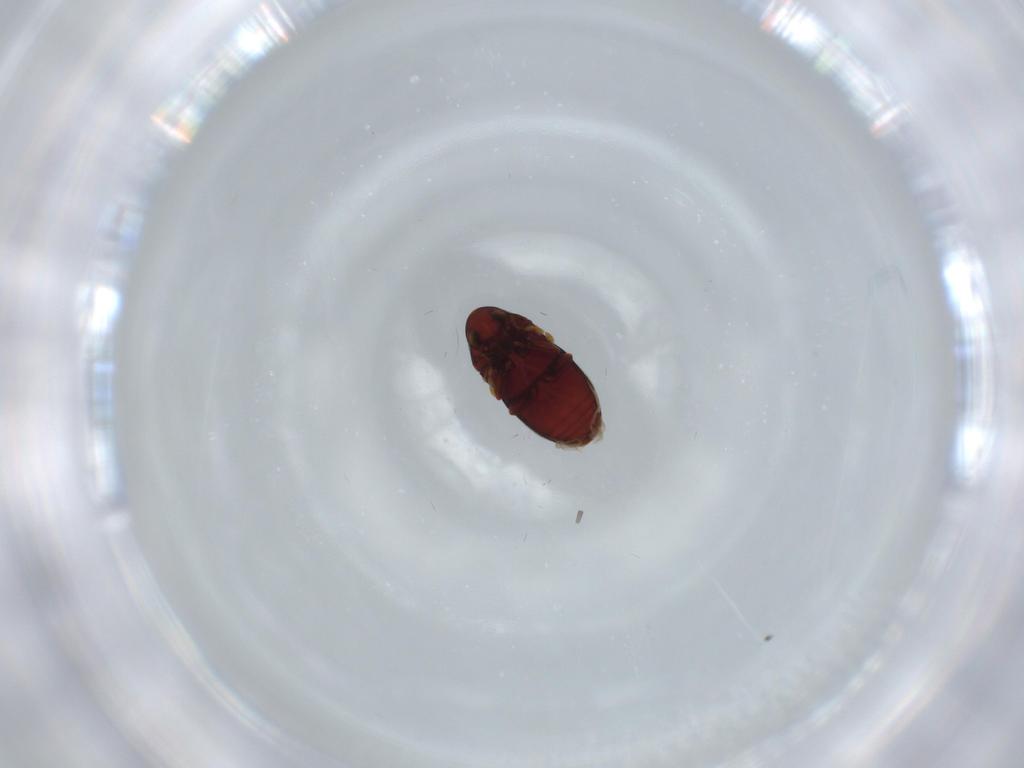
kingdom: Animalia
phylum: Arthropoda
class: Insecta
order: Coleoptera
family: Ptinidae
